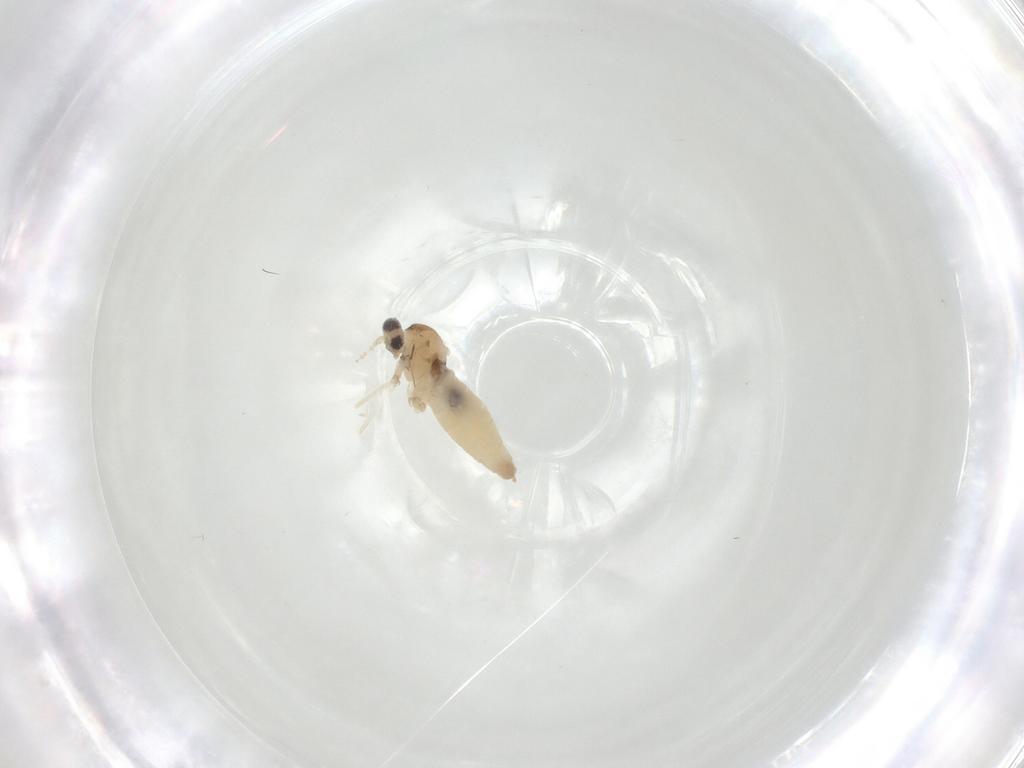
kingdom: Animalia
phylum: Arthropoda
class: Insecta
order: Diptera
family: Cecidomyiidae
